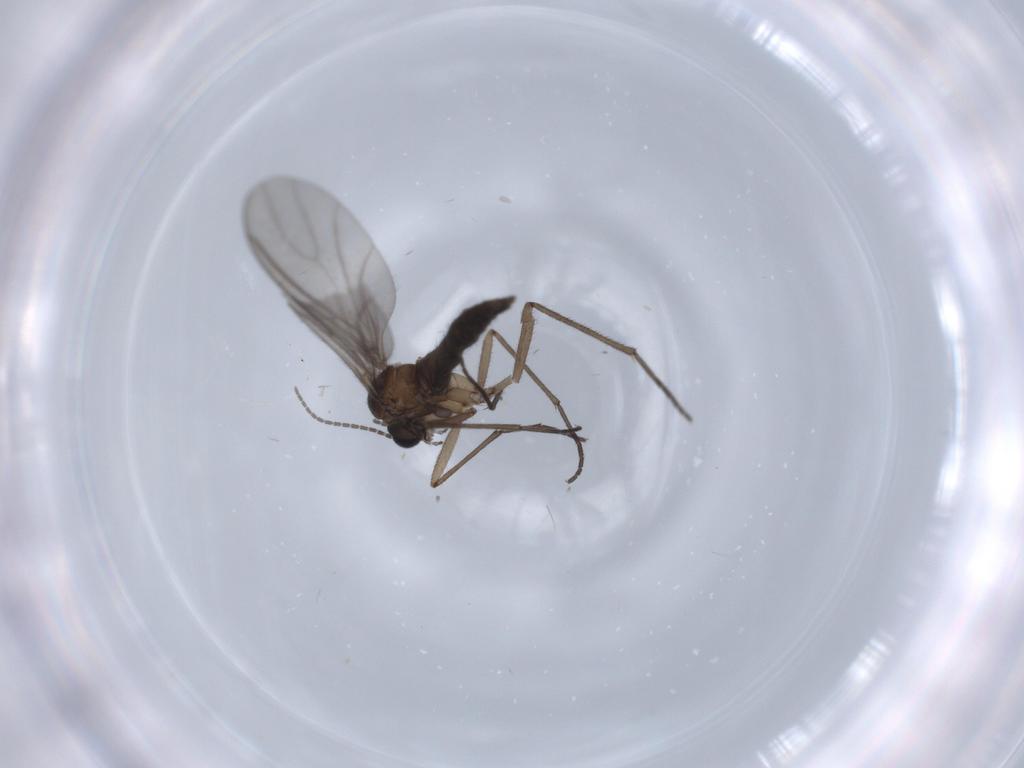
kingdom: Animalia
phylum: Arthropoda
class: Insecta
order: Diptera
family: Sciaridae
